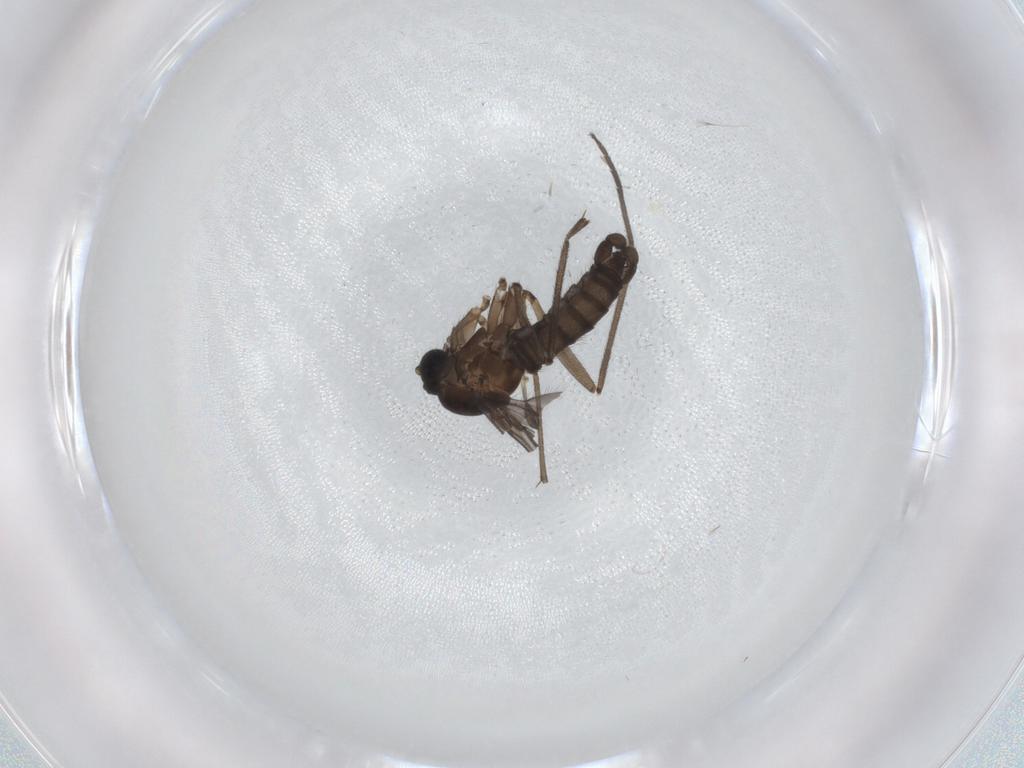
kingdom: Animalia
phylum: Arthropoda
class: Insecta
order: Diptera
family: Sciaridae
